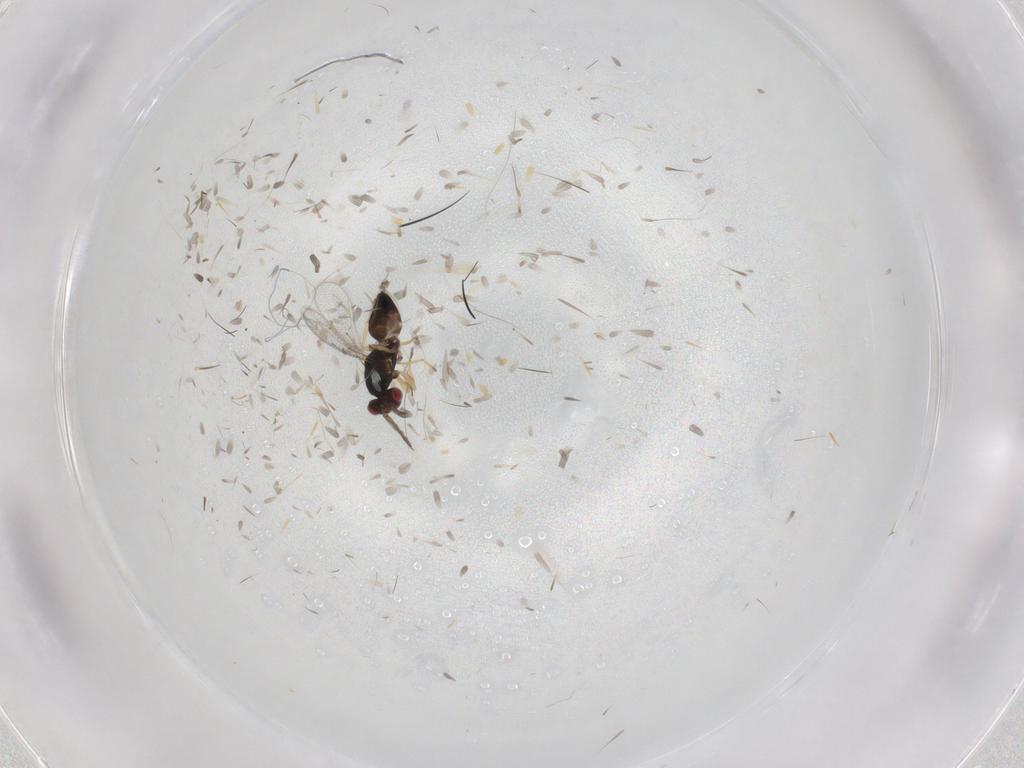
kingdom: Animalia
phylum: Arthropoda
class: Insecta
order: Hymenoptera
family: Eulophidae
